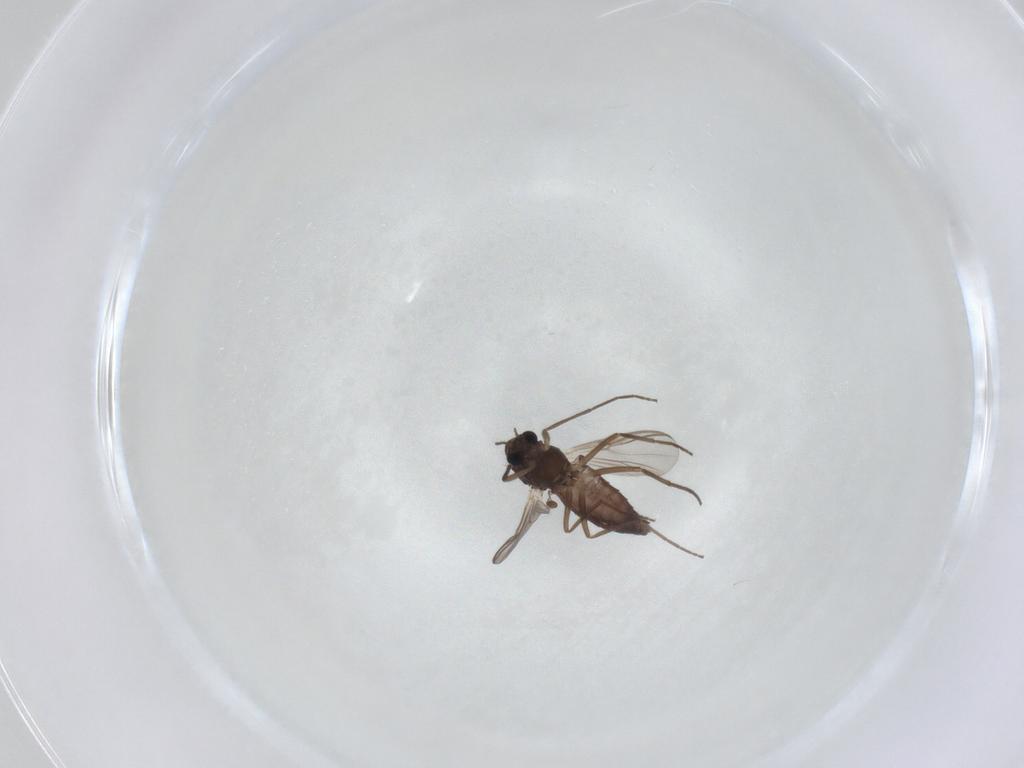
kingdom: Animalia
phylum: Arthropoda
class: Insecta
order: Diptera
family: Chironomidae
